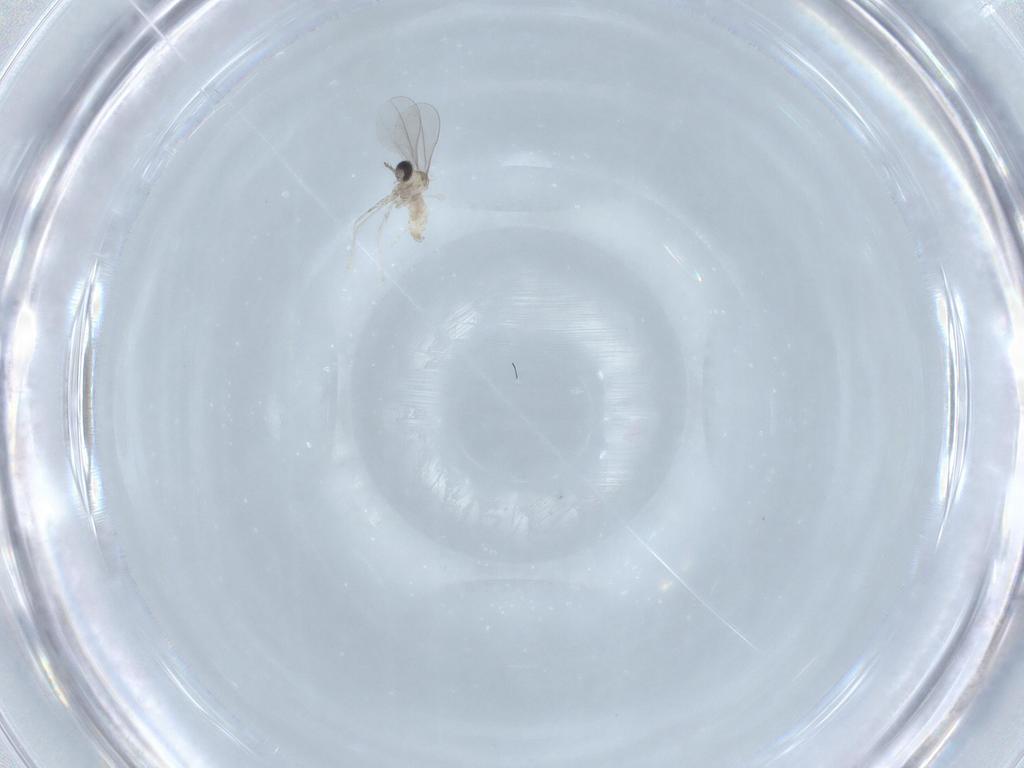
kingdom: Animalia
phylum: Arthropoda
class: Insecta
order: Diptera
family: Cecidomyiidae
